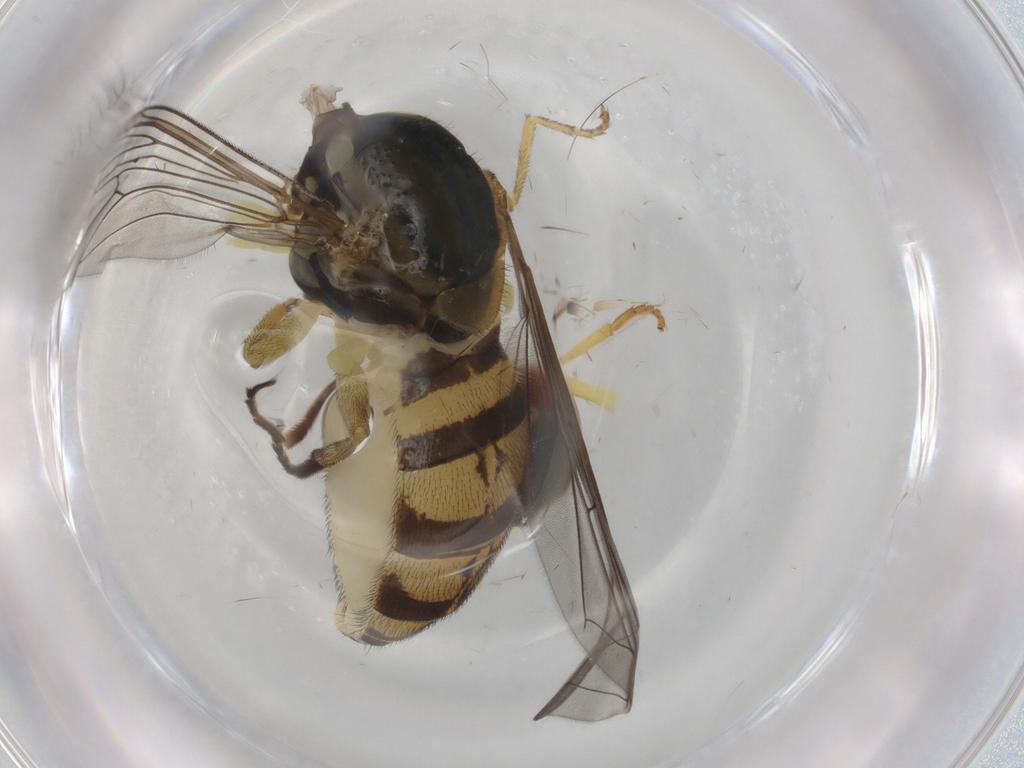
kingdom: Animalia
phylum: Arthropoda
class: Insecta
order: Diptera
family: Syrphidae
